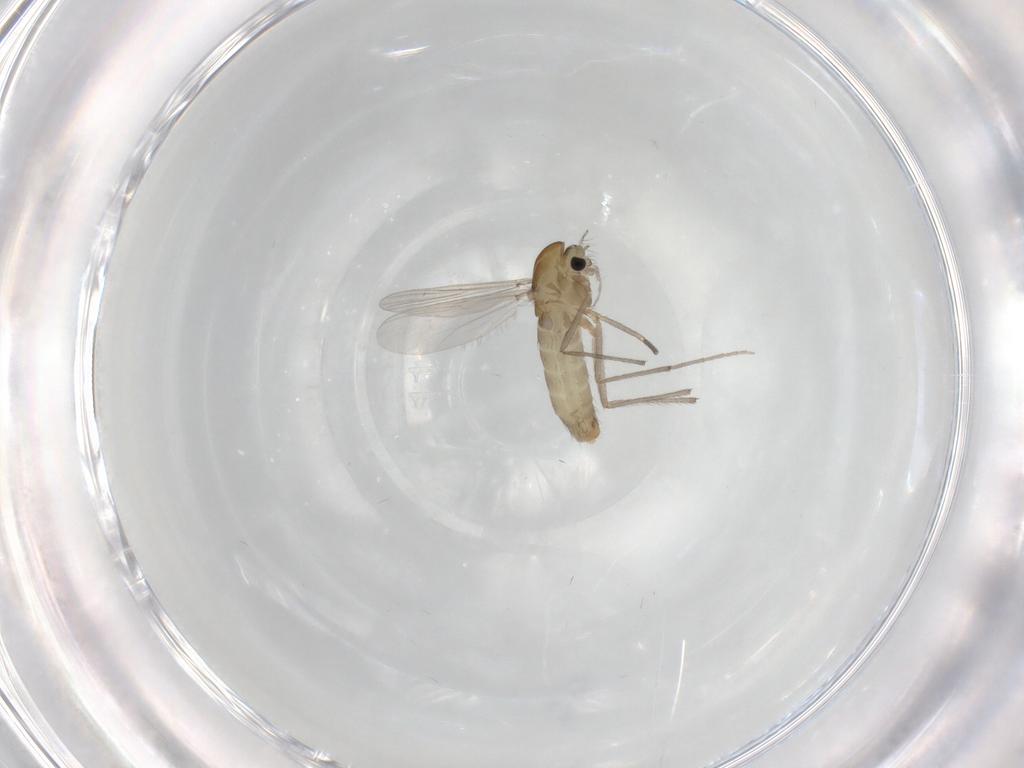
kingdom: Animalia
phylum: Arthropoda
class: Insecta
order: Diptera
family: Chironomidae
